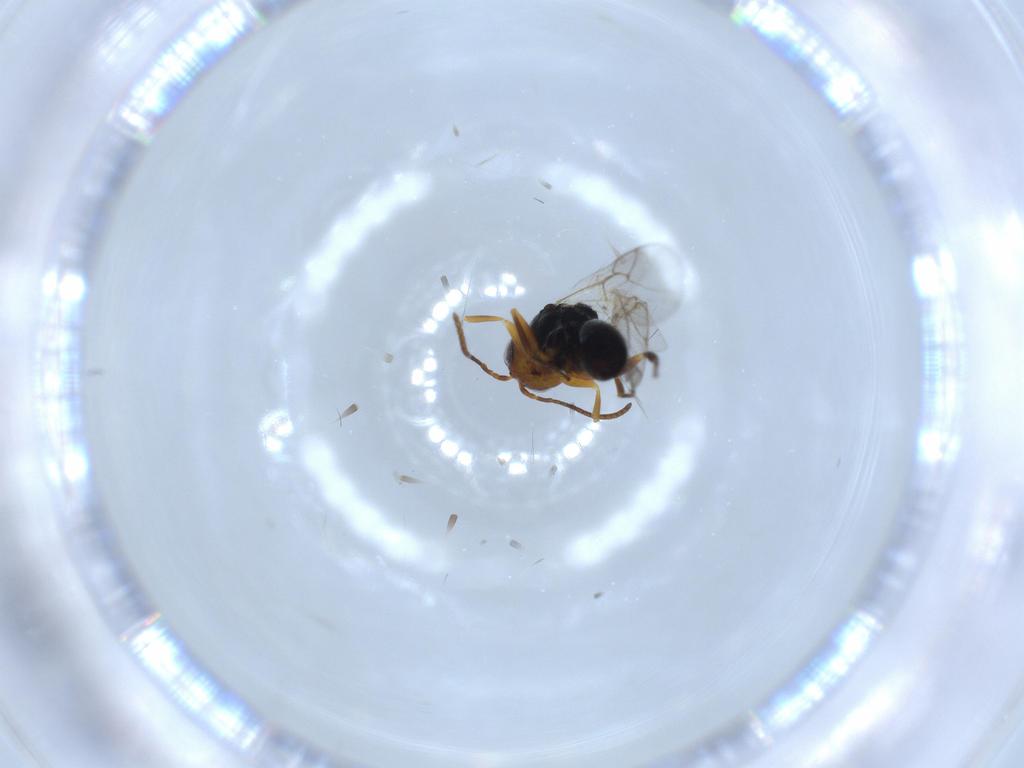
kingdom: Animalia
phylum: Arthropoda
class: Insecta
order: Hymenoptera
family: Cynipidae
